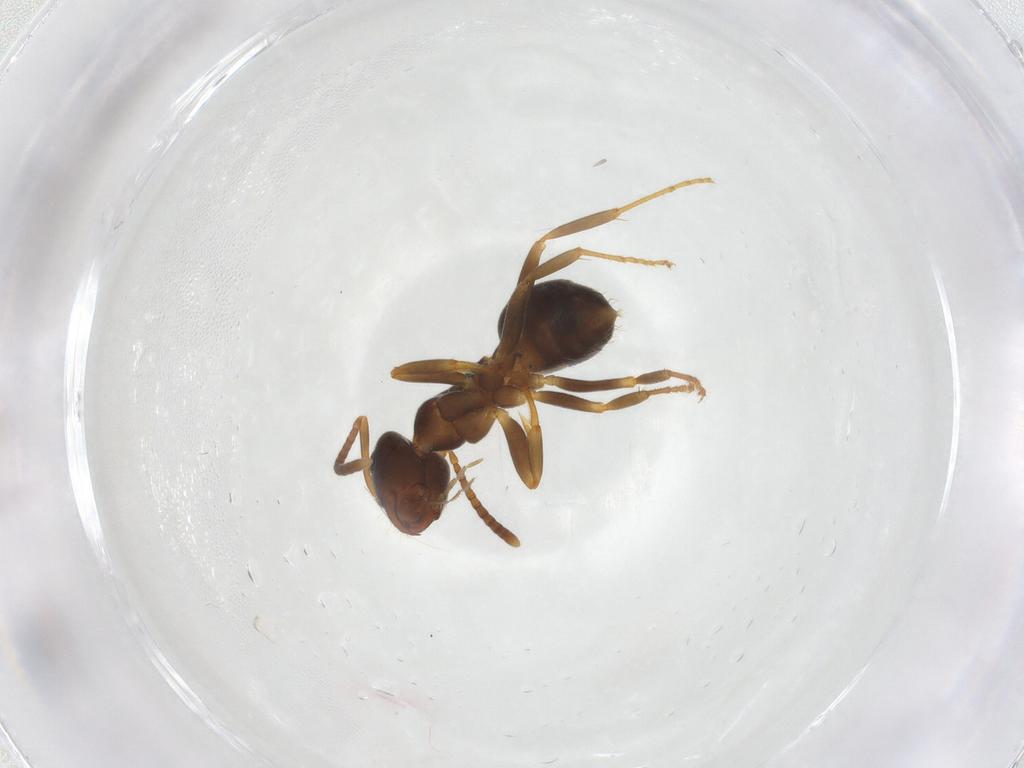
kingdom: Animalia
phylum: Arthropoda
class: Insecta
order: Hymenoptera
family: Formicidae
